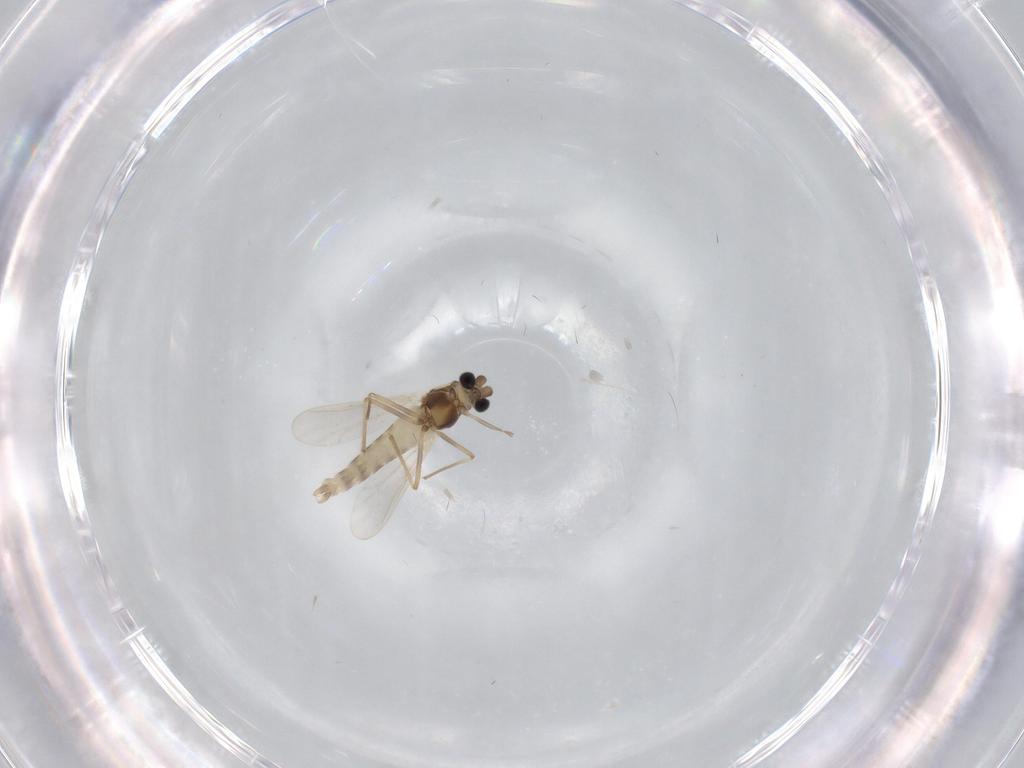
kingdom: Animalia
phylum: Arthropoda
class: Insecta
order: Diptera
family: Chironomidae
